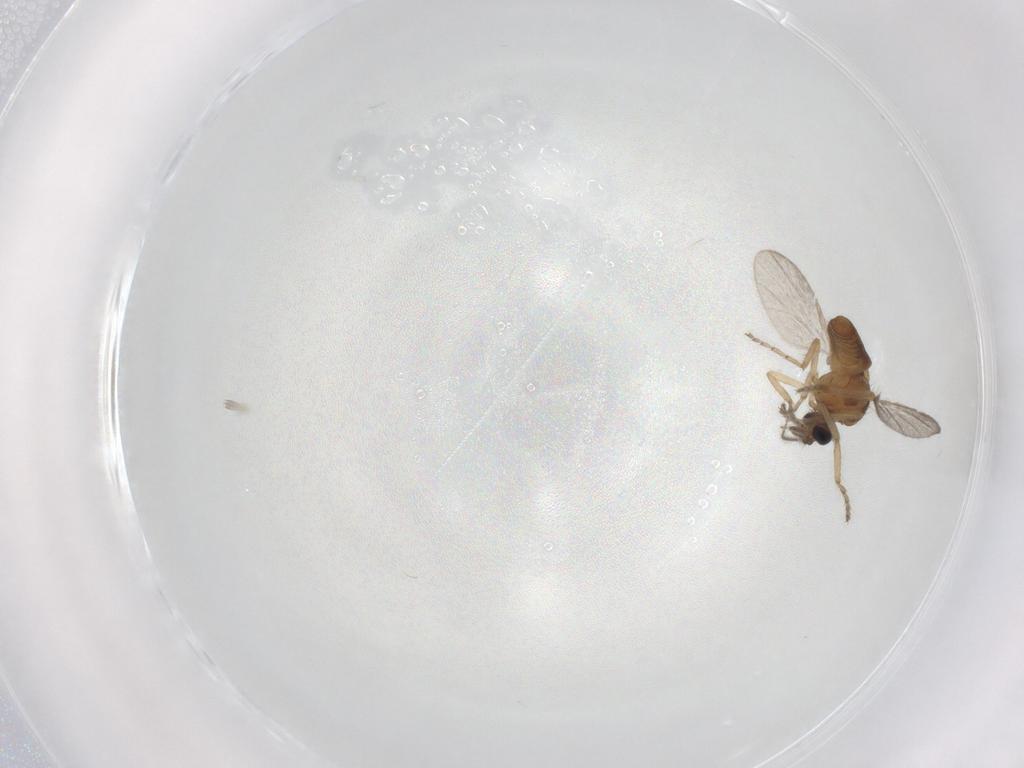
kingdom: Animalia
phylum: Arthropoda
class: Insecta
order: Diptera
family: Ceratopogonidae
